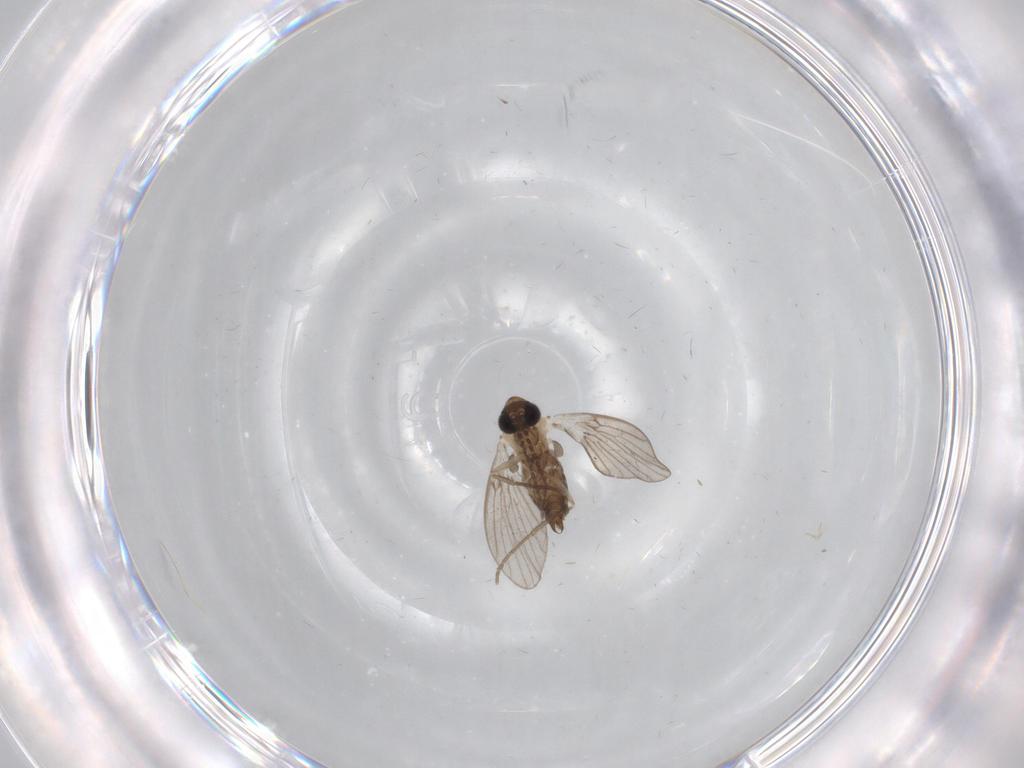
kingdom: Animalia
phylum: Arthropoda
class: Insecta
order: Diptera
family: Psychodidae
